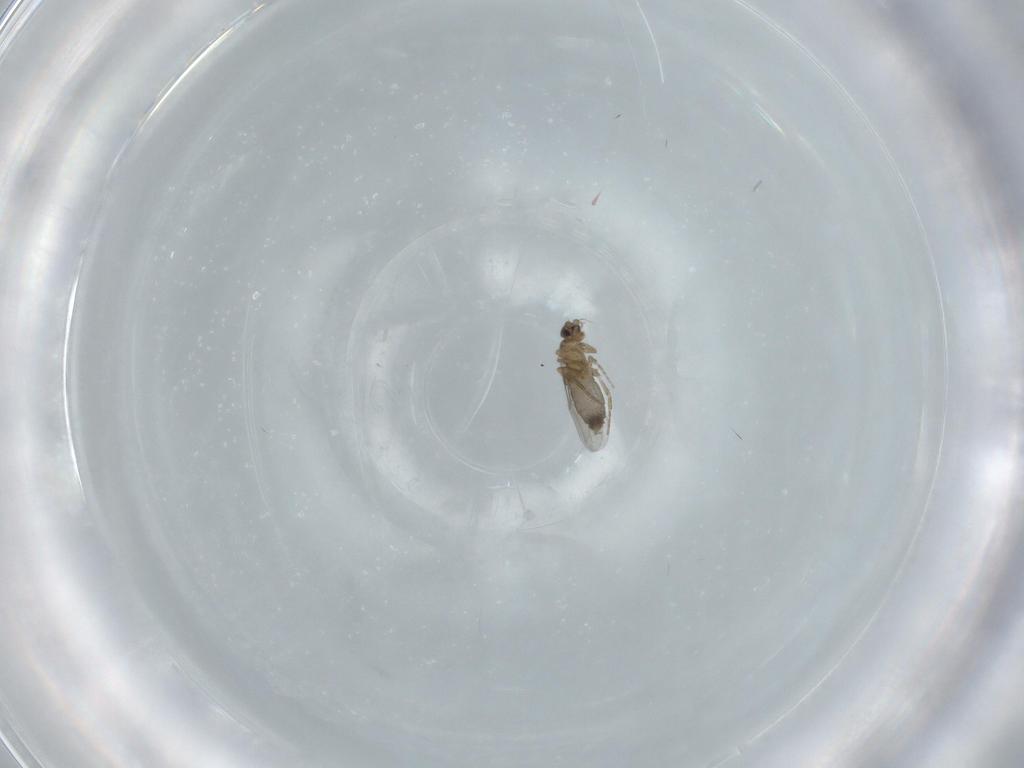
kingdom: Animalia
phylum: Arthropoda
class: Insecta
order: Diptera
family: Phoridae
